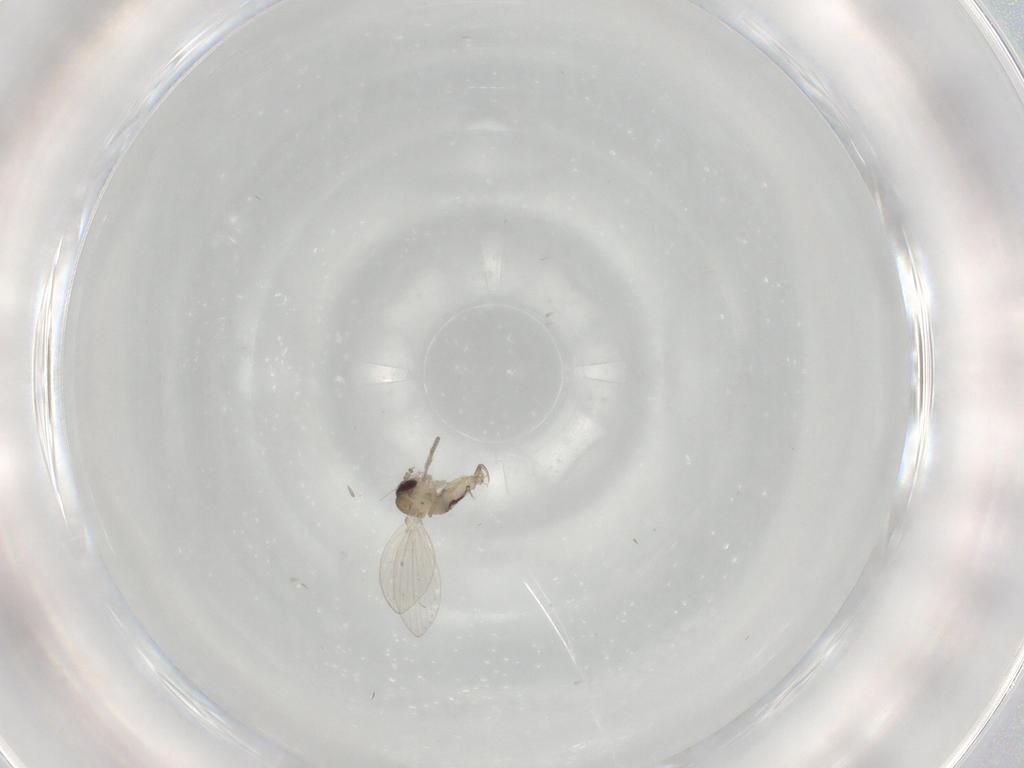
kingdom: Animalia
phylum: Arthropoda
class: Insecta
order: Diptera
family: Psychodidae
